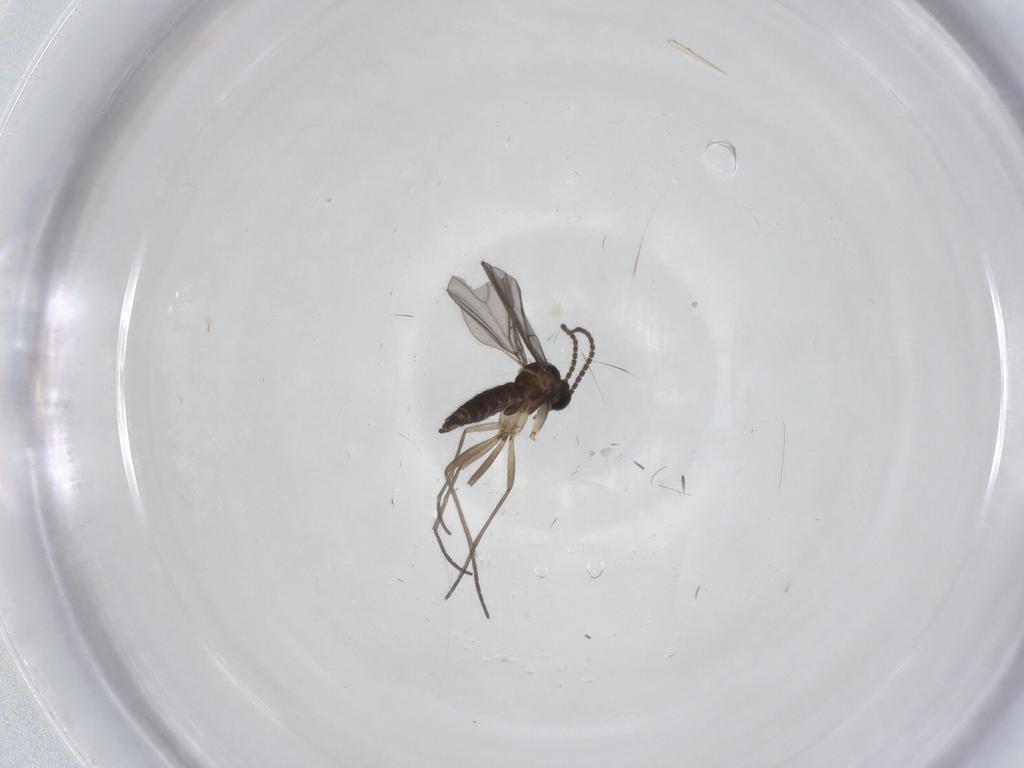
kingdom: Animalia
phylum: Arthropoda
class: Insecta
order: Diptera
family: Sciaridae
